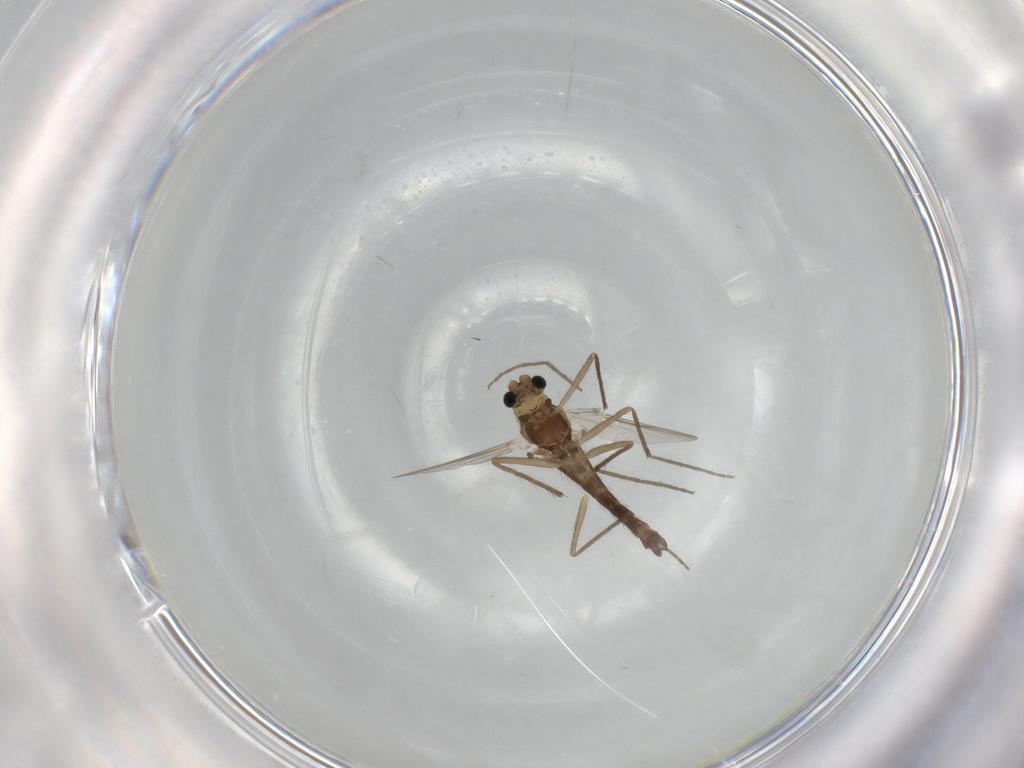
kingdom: Animalia
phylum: Arthropoda
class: Insecta
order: Diptera
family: Chironomidae
